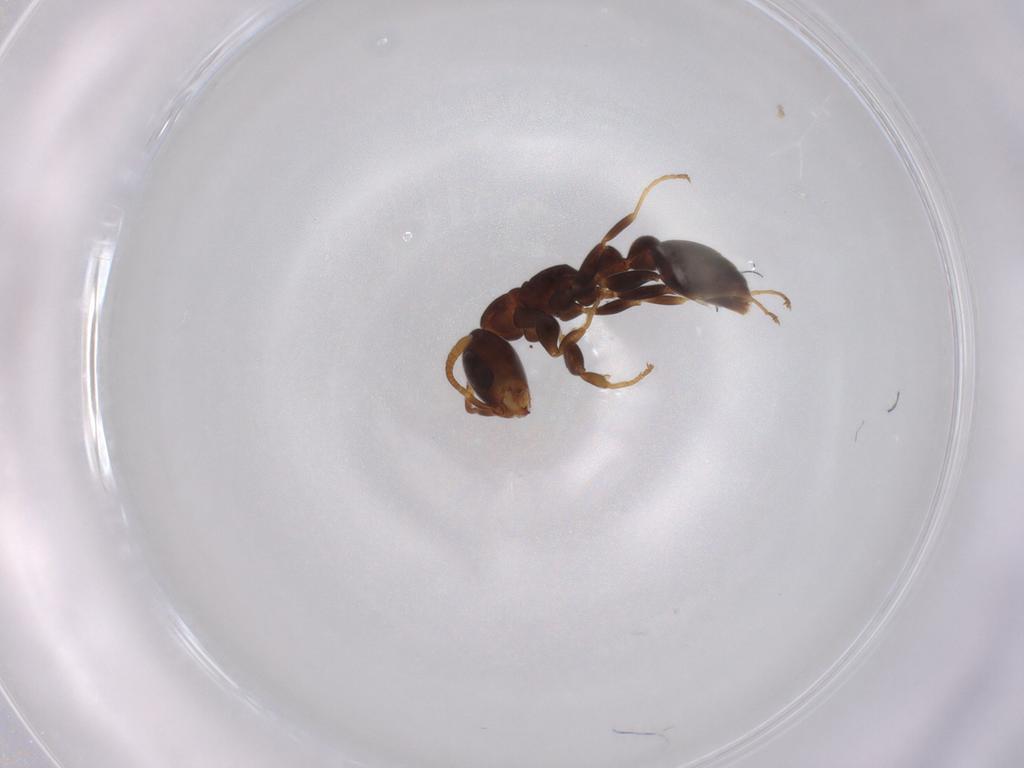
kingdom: Animalia
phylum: Arthropoda
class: Insecta
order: Hymenoptera
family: Formicidae
